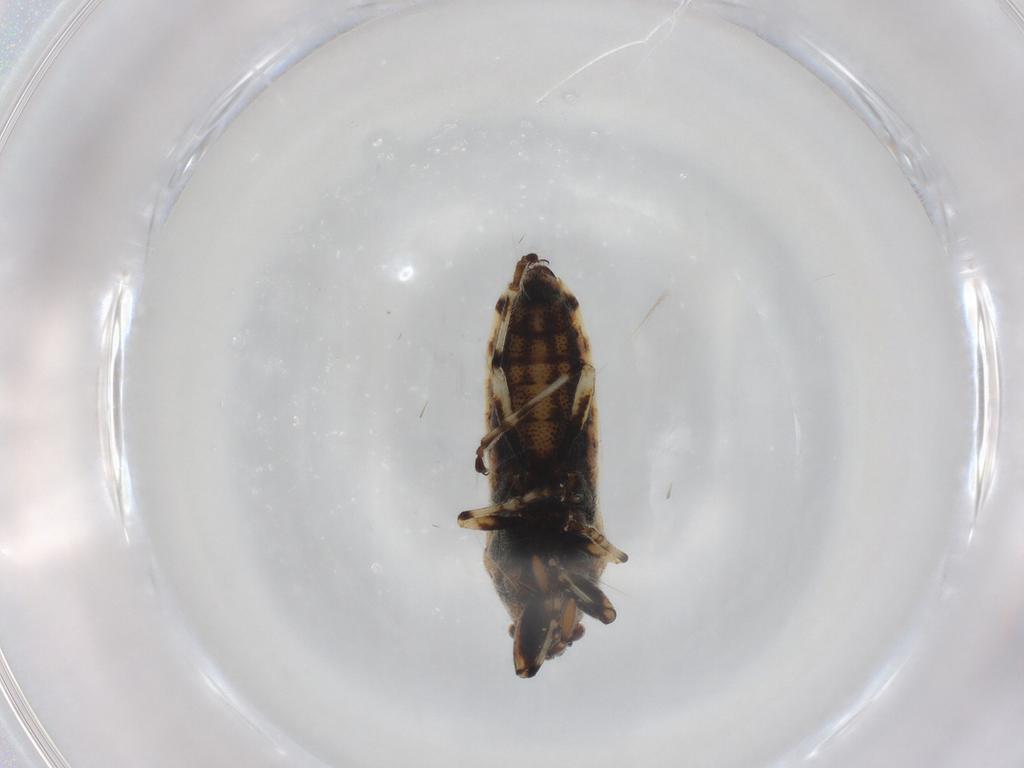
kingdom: Animalia
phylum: Arthropoda
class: Insecta
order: Hemiptera
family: Pachygronthidae
